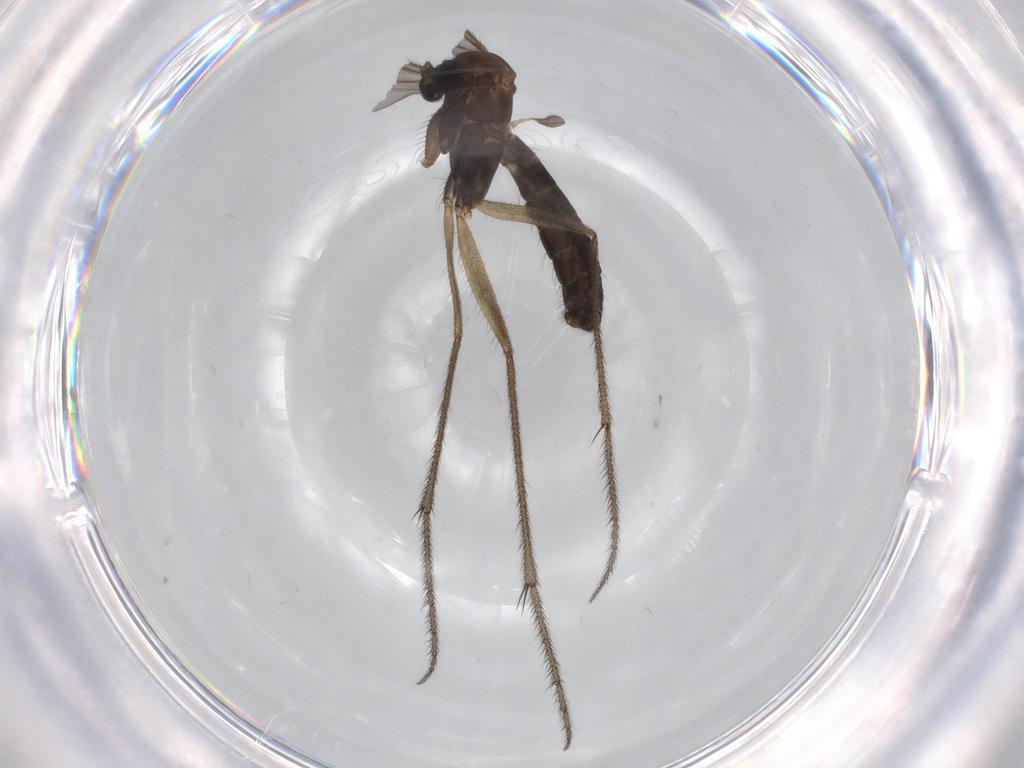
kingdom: Animalia
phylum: Arthropoda
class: Insecta
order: Diptera
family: Ditomyiidae
